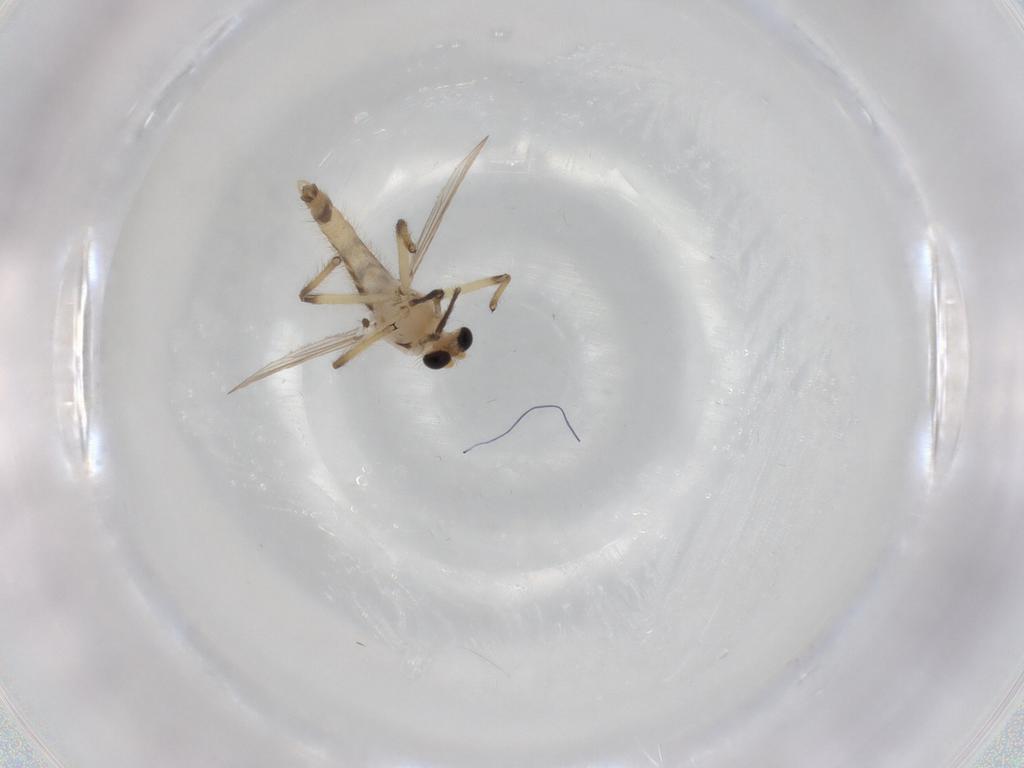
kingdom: Animalia
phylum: Arthropoda
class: Insecta
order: Diptera
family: Chironomidae
